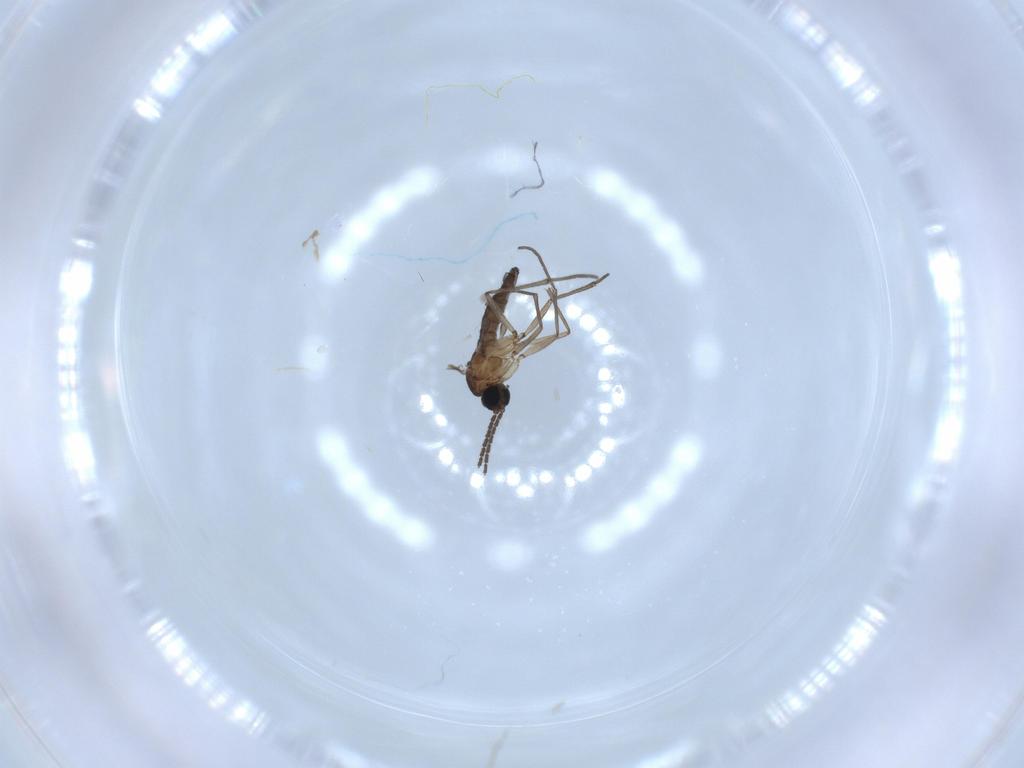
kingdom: Animalia
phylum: Arthropoda
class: Insecta
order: Diptera
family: Sciaridae
